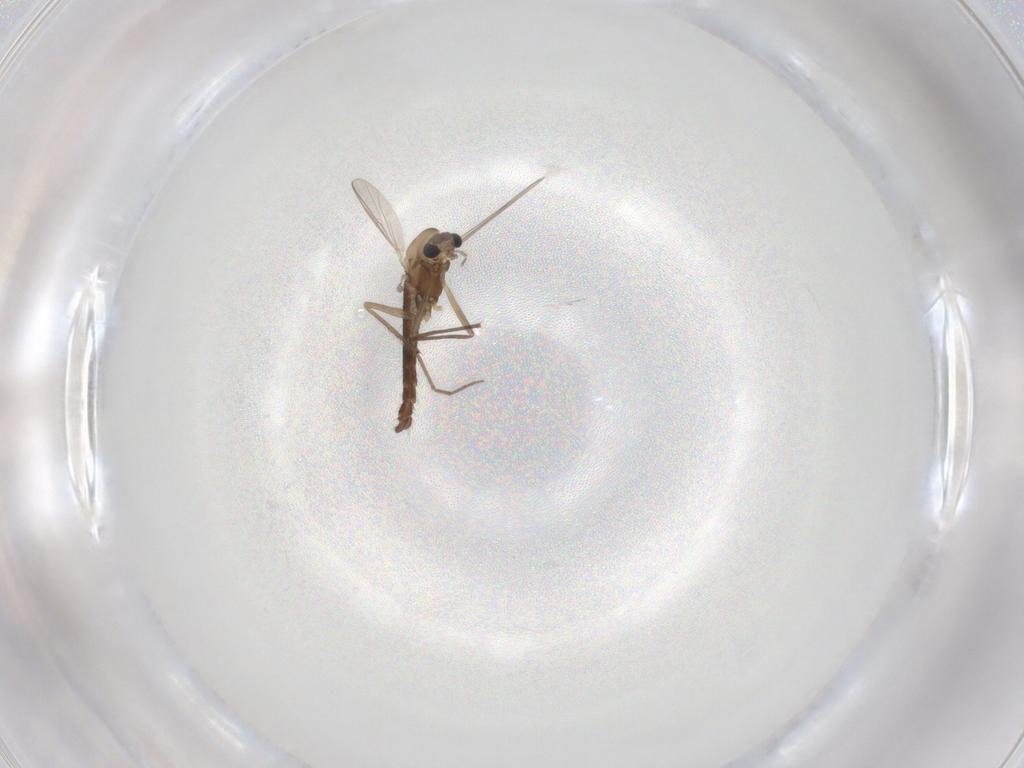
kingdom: Animalia
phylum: Arthropoda
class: Insecta
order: Diptera
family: Chironomidae
